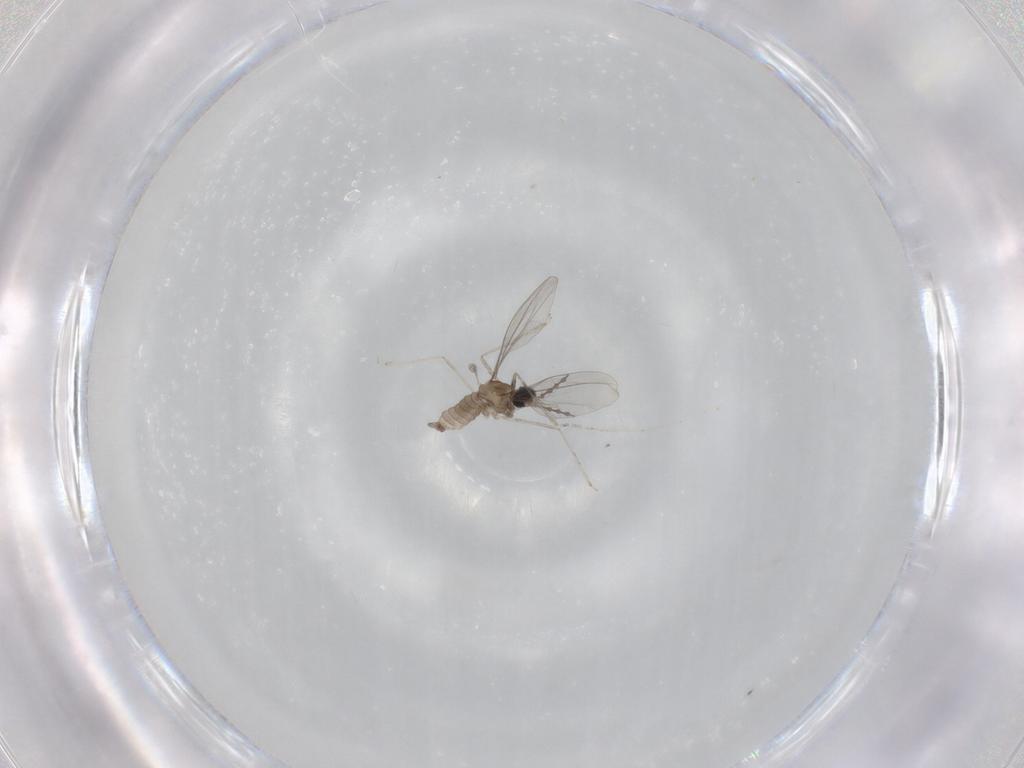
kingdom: Animalia
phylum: Arthropoda
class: Insecta
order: Diptera
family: Cecidomyiidae
